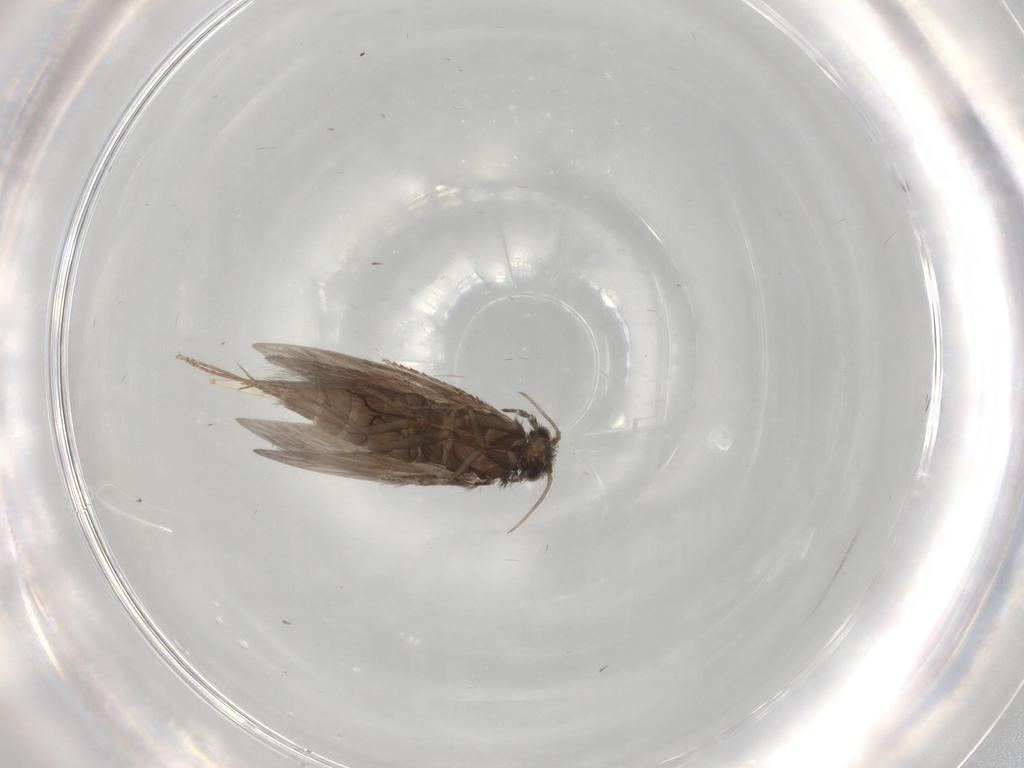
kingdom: Animalia
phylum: Arthropoda
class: Insecta
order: Trichoptera
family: Hydroptilidae
